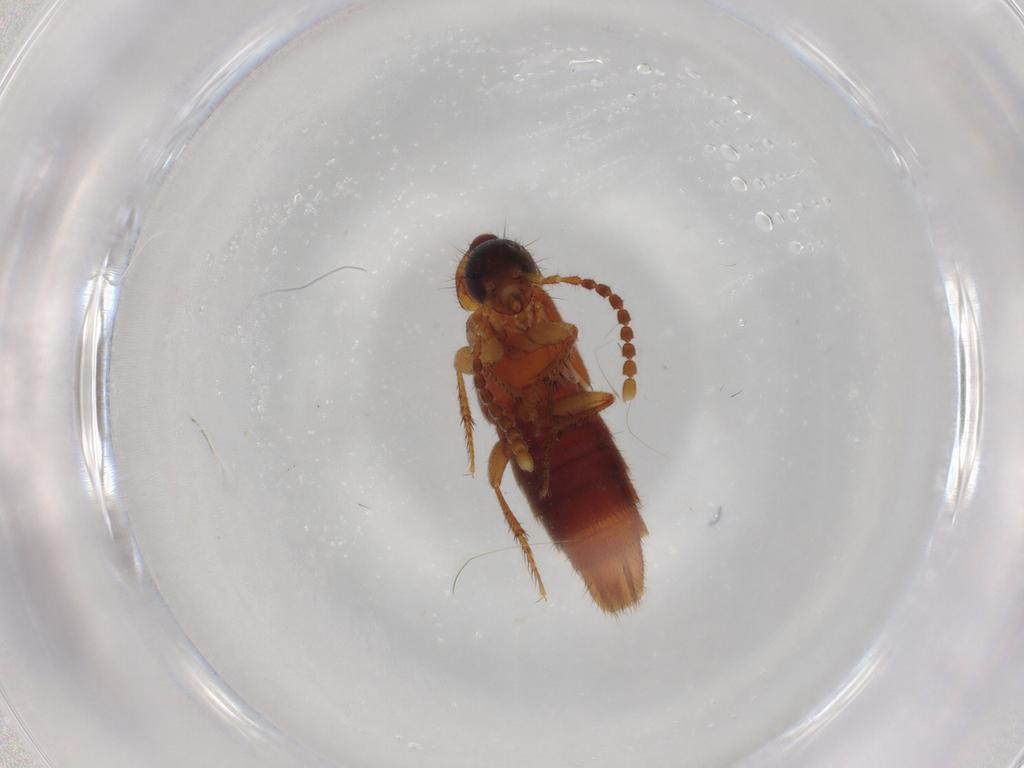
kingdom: Animalia
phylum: Arthropoda
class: Insecta
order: Coleoptera
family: Staphylinidae
